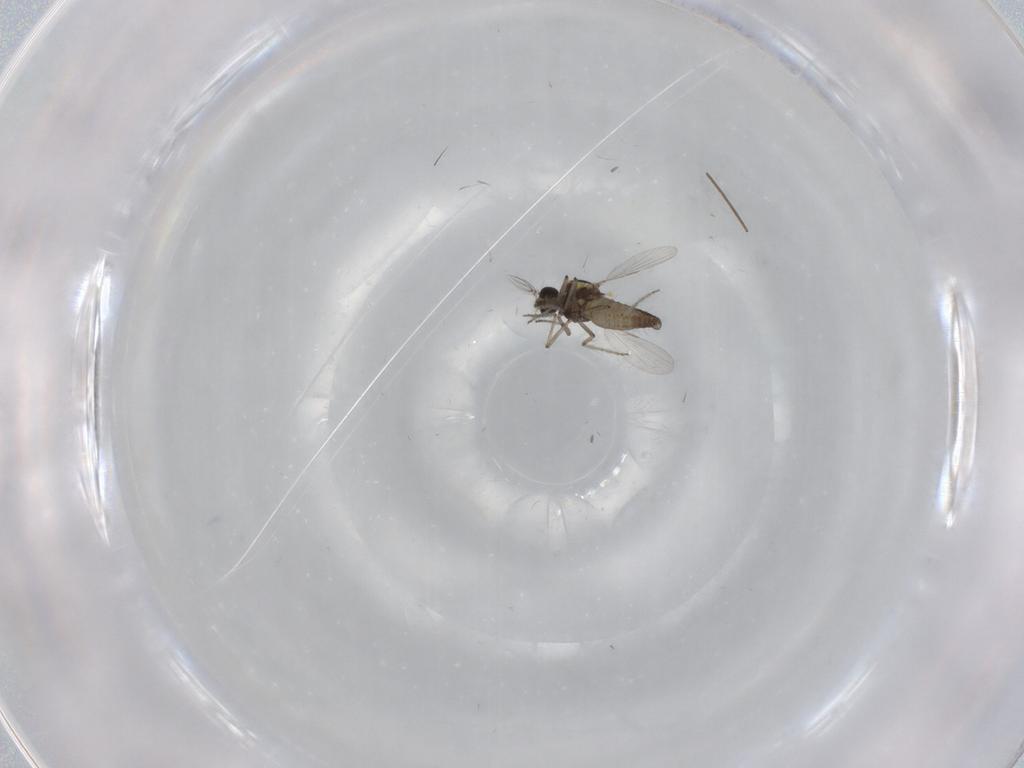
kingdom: Animalia
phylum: Arthropoda
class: Insecta
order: Diptera
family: Ceratopogonidae
